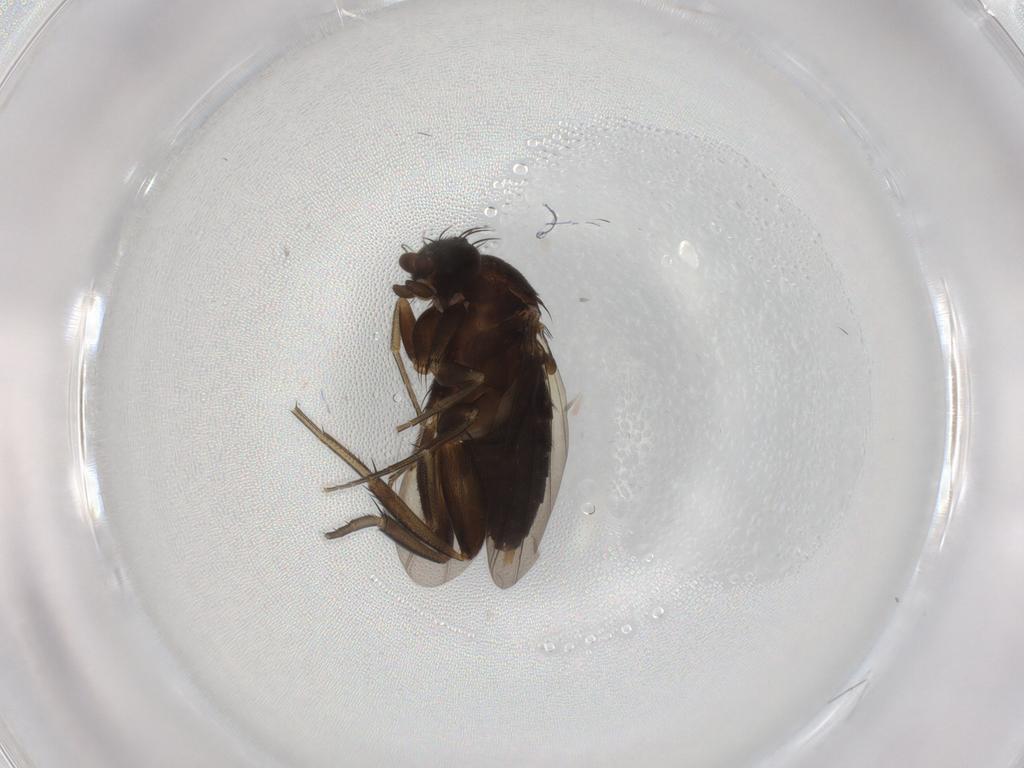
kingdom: Animalia
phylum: Arthropoda
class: Insecta
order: Diptera
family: Phoridae
